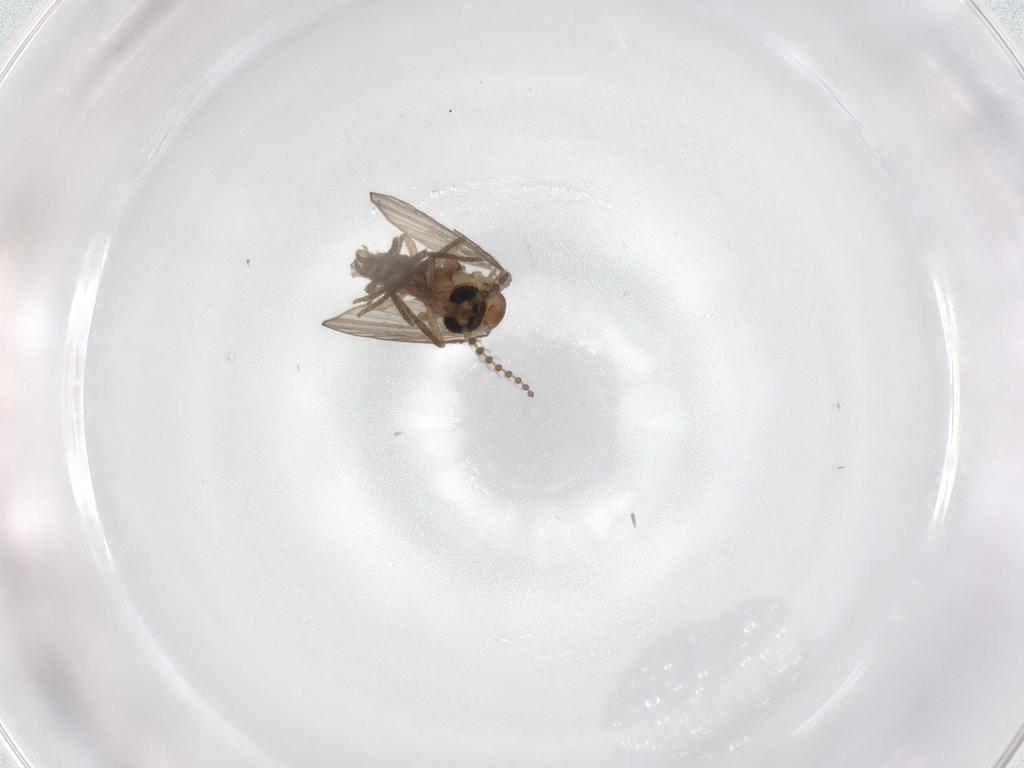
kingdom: Animalia
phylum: Arthropoda
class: Insecta
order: Diptera
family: Psychodidae
